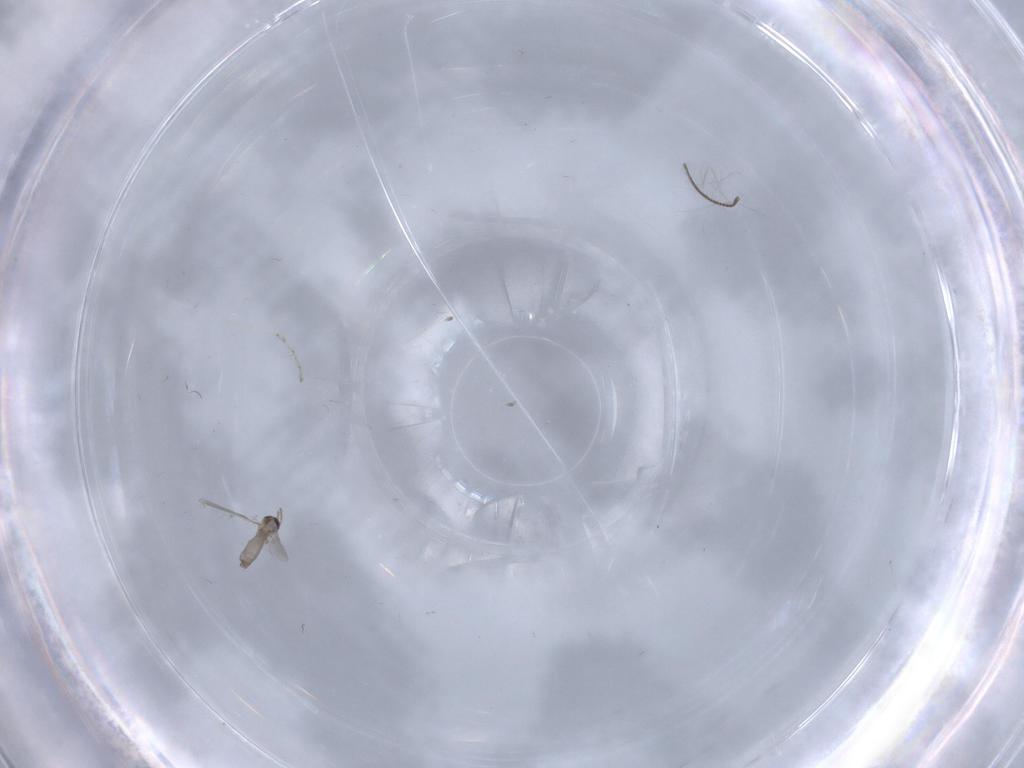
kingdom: Animalia
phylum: Arthropoda
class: Insecta
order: Diptera
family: Cecidomyiidae
